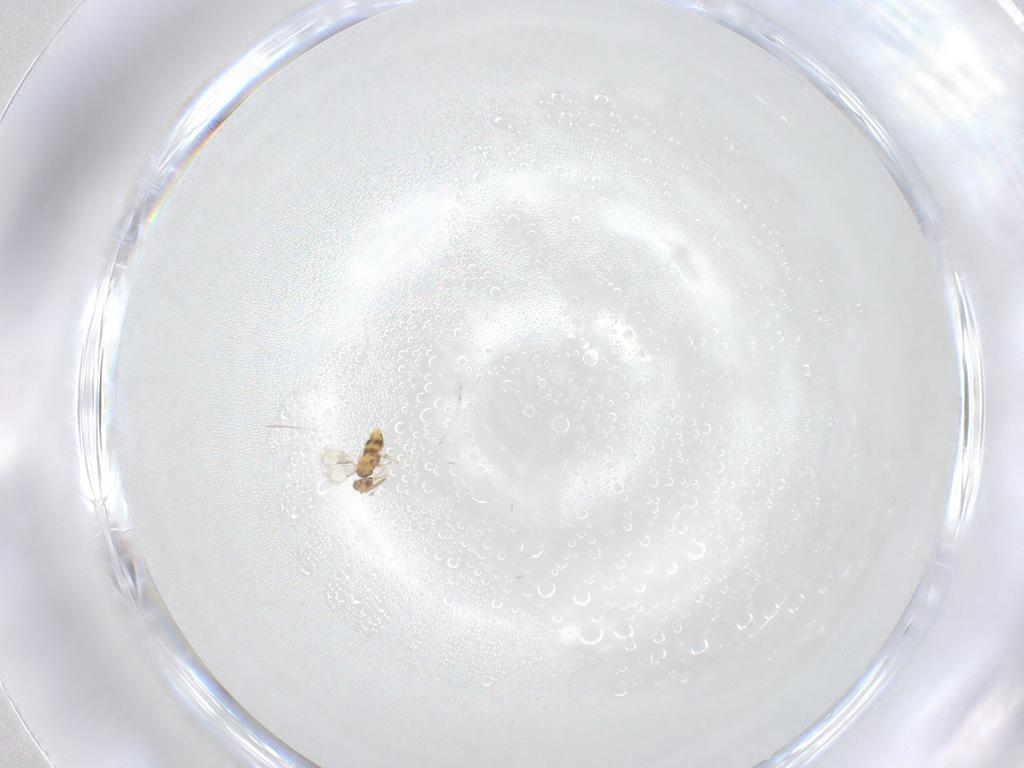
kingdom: Animalia
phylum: Arthropoda
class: Insecta
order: Hymenoptera
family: Aphelinidae
